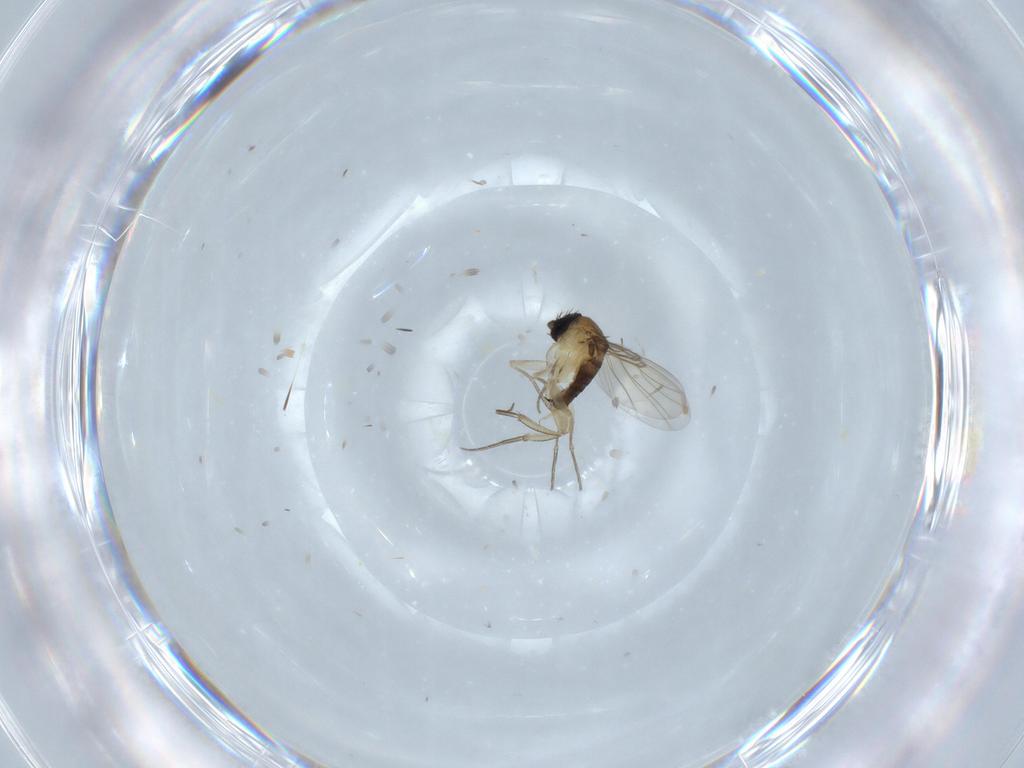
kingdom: Animalia
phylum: Arthropoda
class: Insecta
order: Diptera
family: Phoridae
